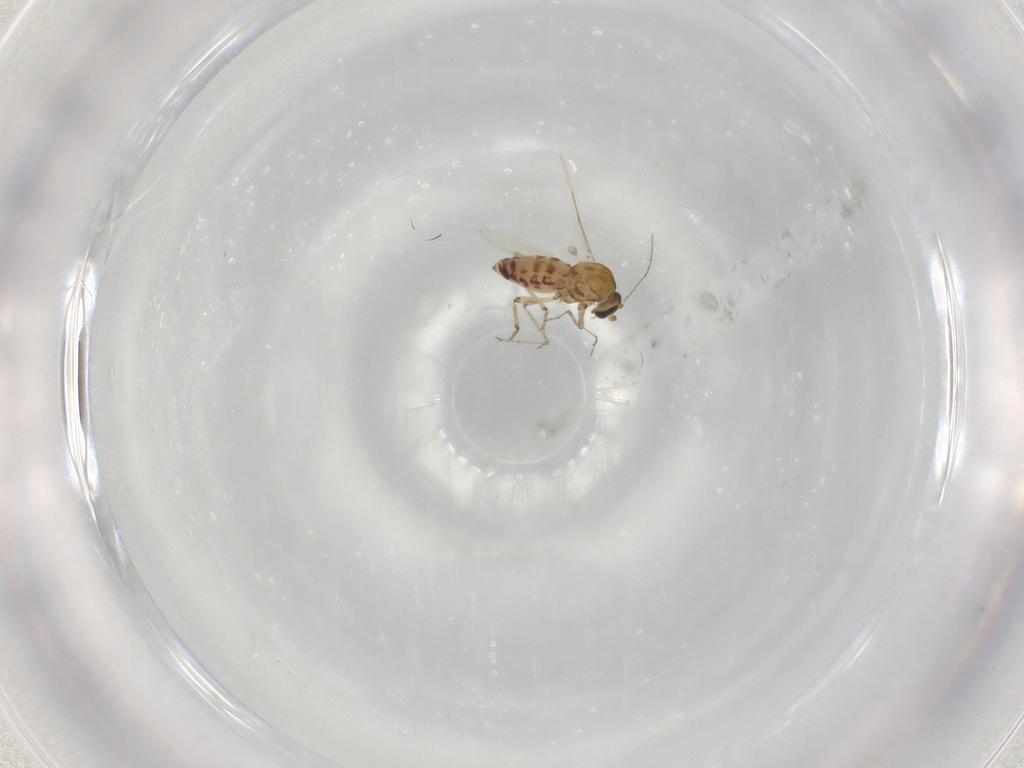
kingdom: Animalia
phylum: Arthropoda
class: Insecta
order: Diptera
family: Ceratopogonidae
